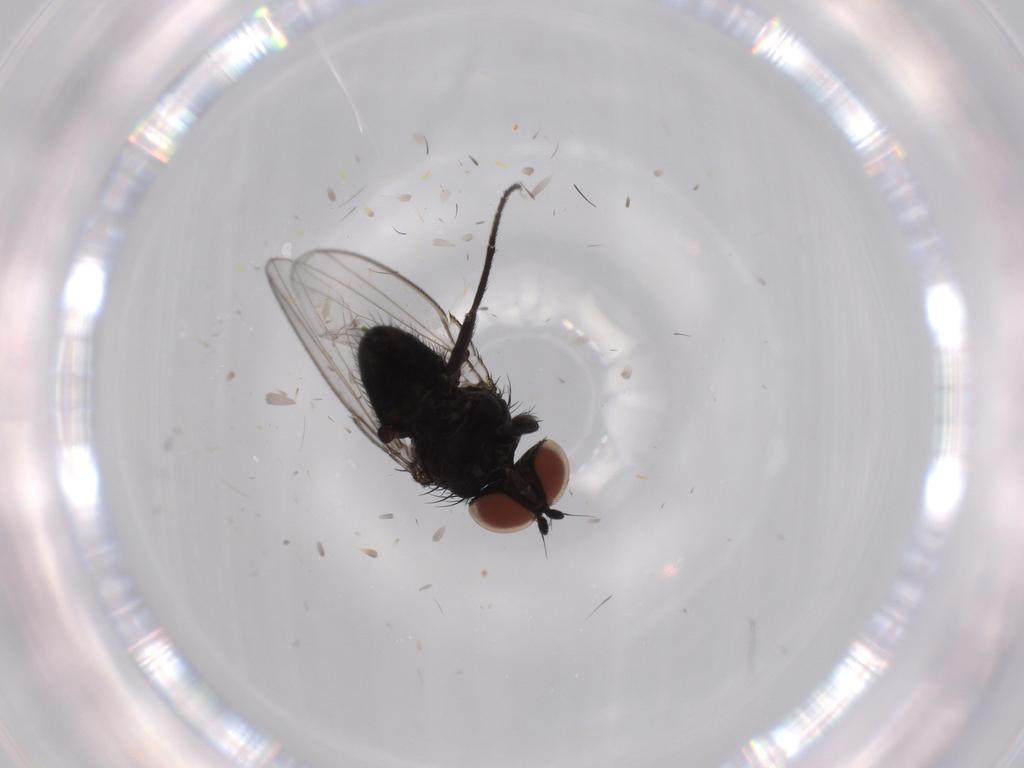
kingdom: Animalia
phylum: Arthropoda
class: Insecta
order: Diptera
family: Milichiidae
